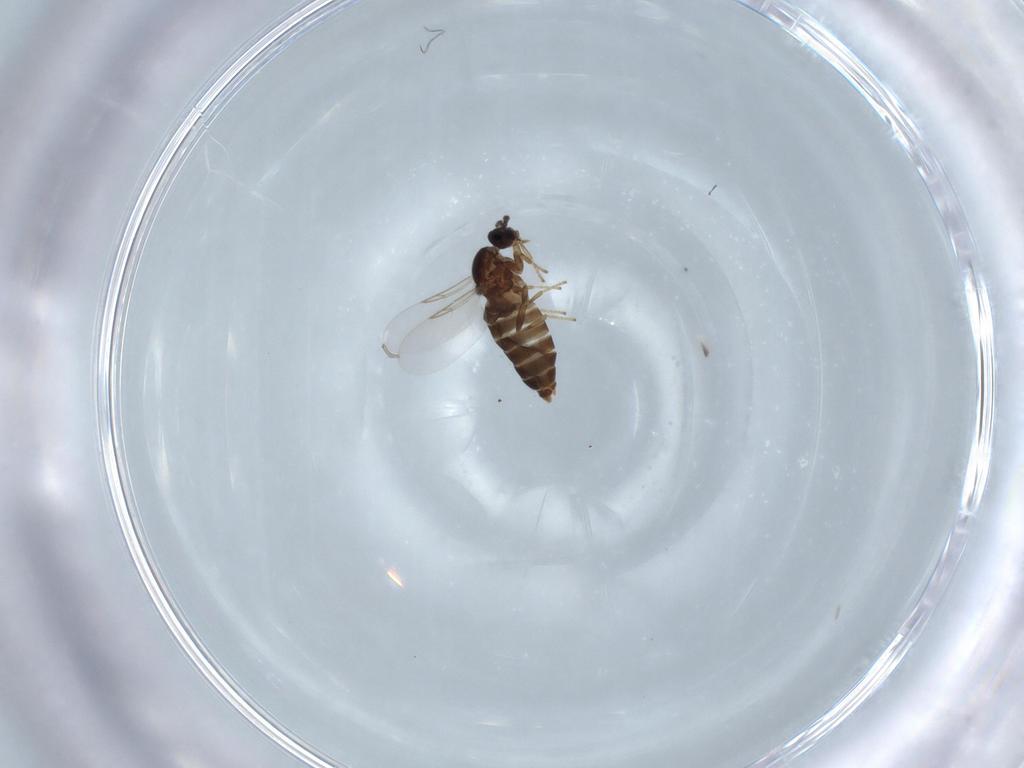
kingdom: Animalia
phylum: Arthropoda
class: Insecta
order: Diptera
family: Scatopsidae
